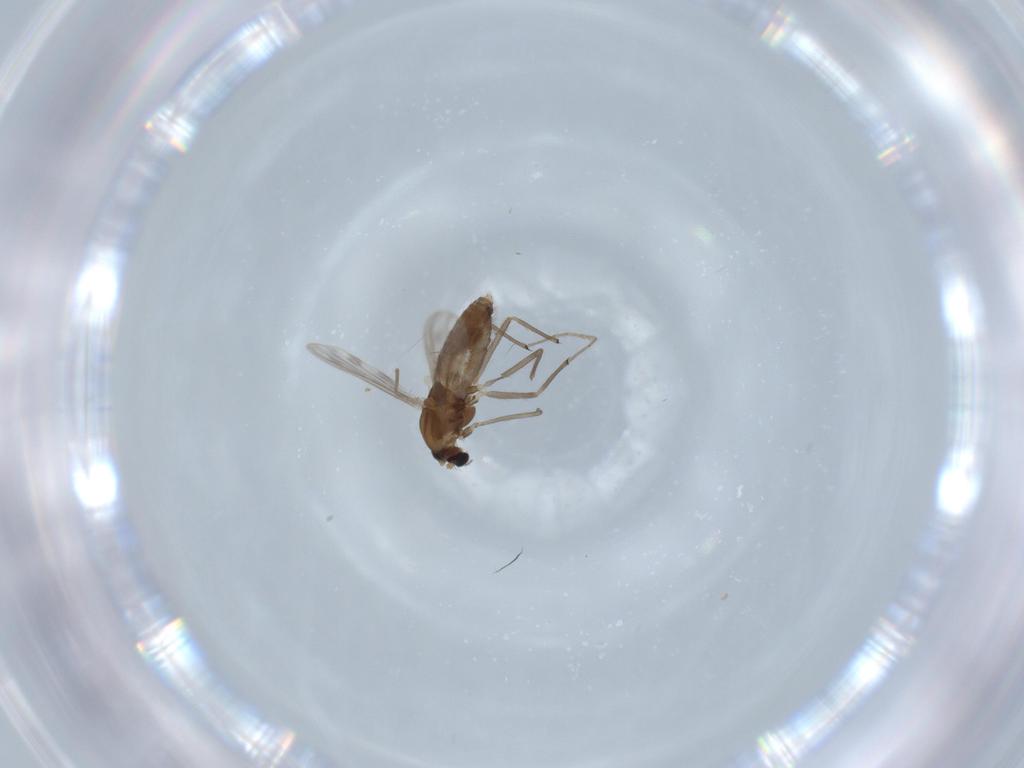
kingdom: Animalia
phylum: Arthropoda
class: Insecta
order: Diptera
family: Chironomidae
